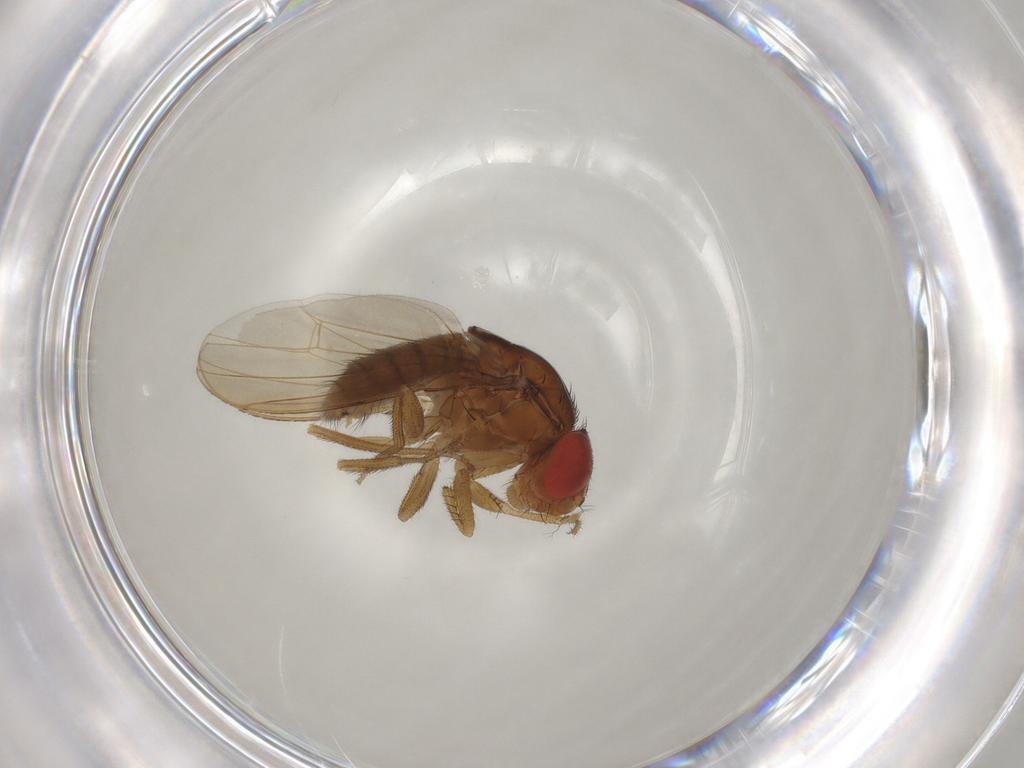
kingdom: Animalia
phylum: Arthropoda
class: Insecta
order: Diptera
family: Drosophilidae
